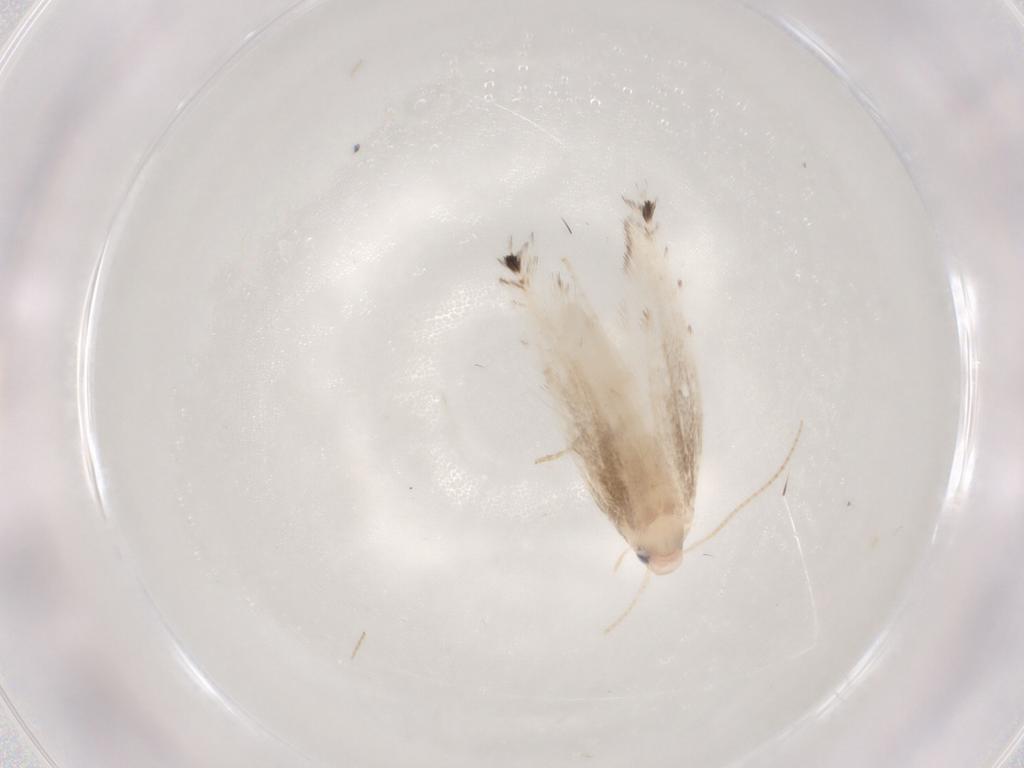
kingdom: Animalia
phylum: Arthropoda
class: Insecta
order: Lepidoptera
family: Gracillariidae
